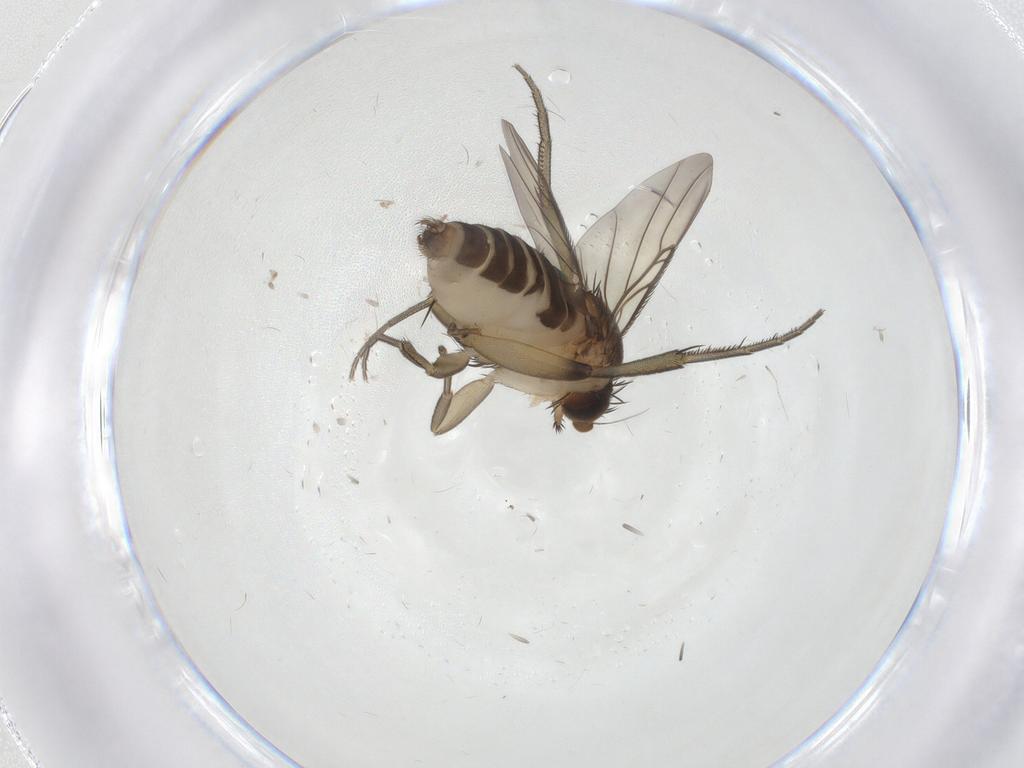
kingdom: Animalia
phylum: Arthropoda
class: Insecta
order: Diptera
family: Phoridae
